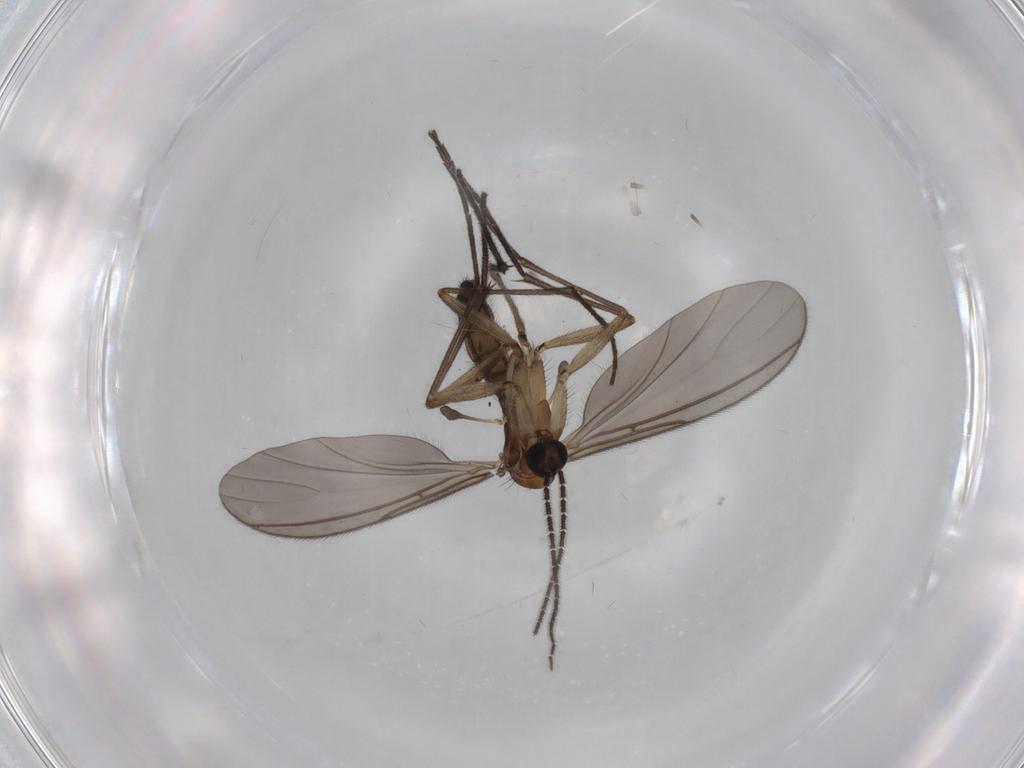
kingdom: Animalia
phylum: Arthropoda
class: Insecta
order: Diptera
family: Sciaridae
